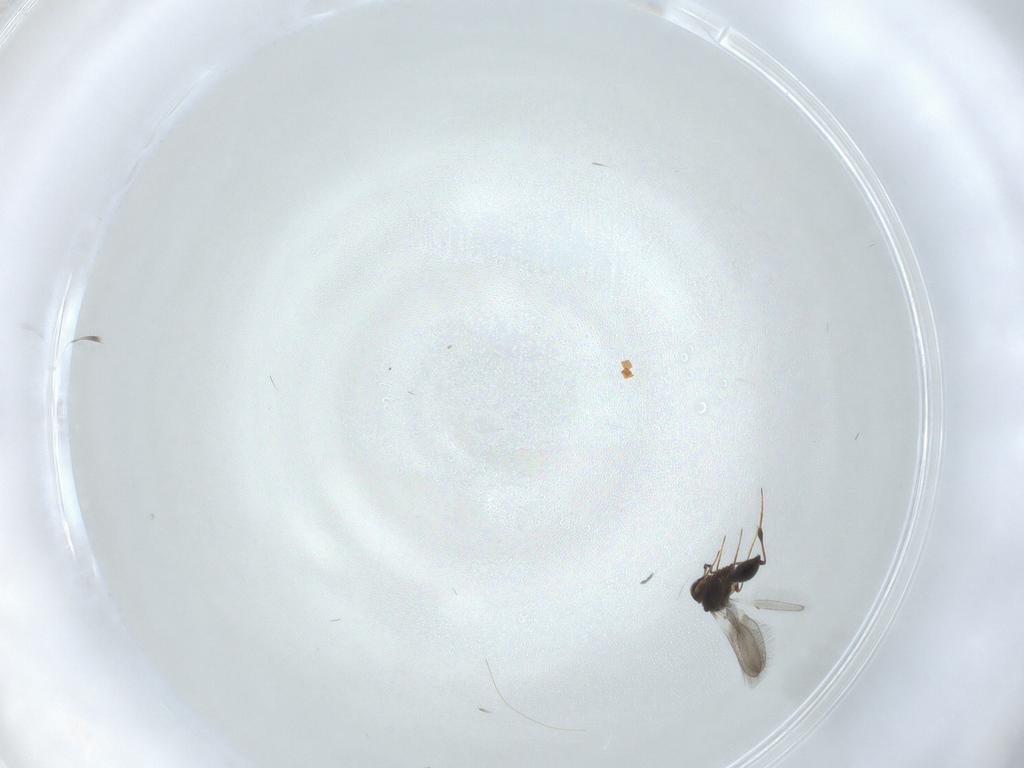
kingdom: Animalia
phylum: Arthropoda
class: Insecta
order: Hymenoptera
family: Platygastridae
